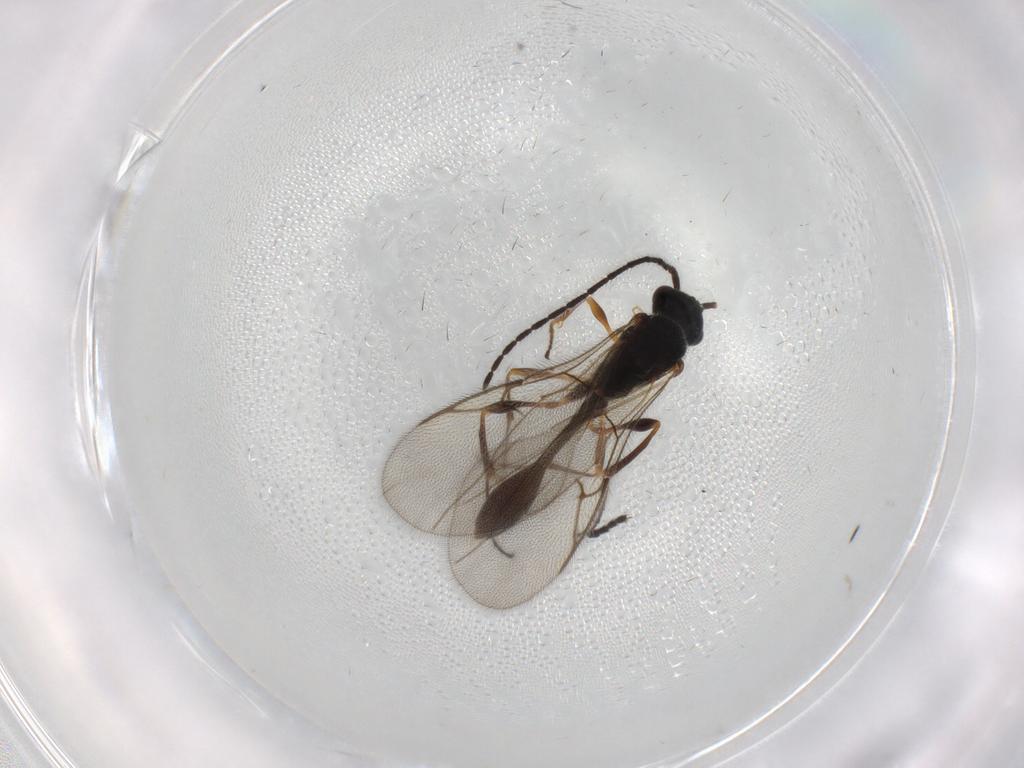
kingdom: Animalia
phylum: Arthropoda
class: Insecta
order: Hymenoptera
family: Diapriidae
